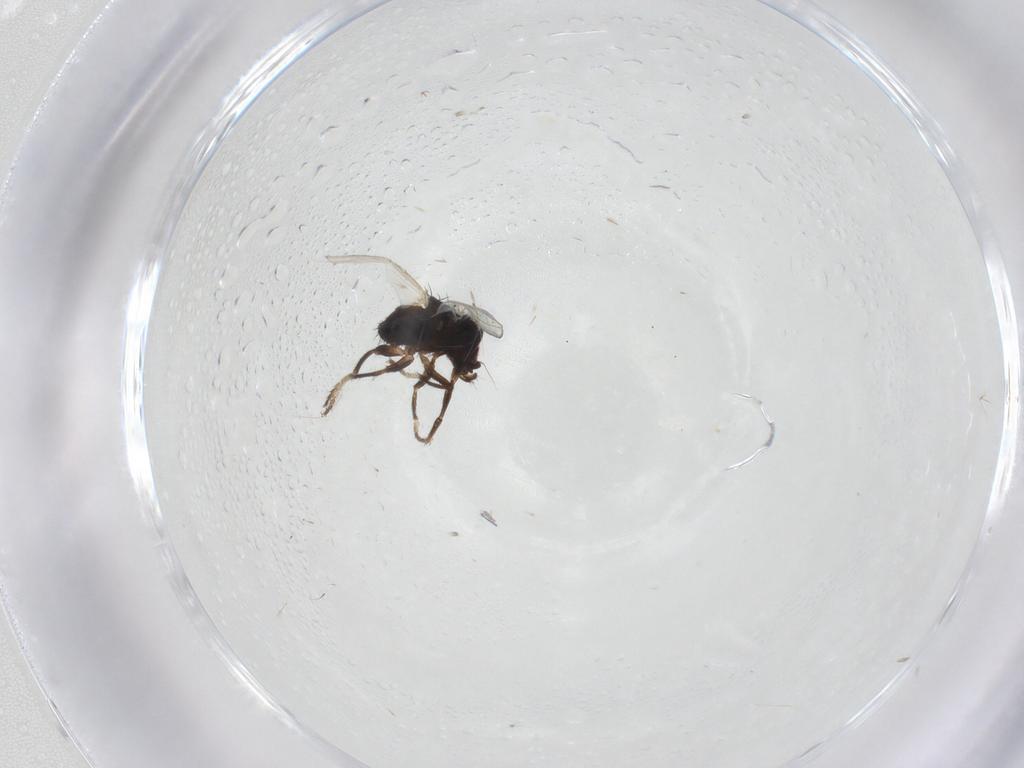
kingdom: Animalia
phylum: Arthropoda
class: Insecta
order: Diptera
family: Milichiidae
